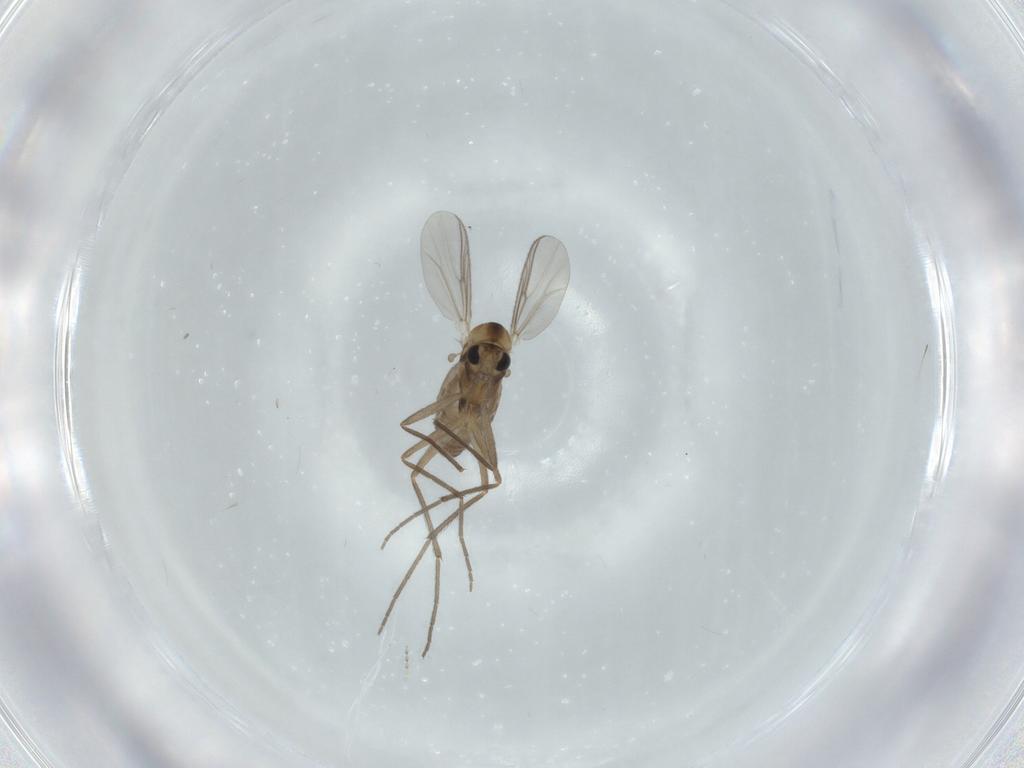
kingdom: Animalia
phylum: Arthropoda
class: Insecta
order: Diptera
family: Chironomidae
